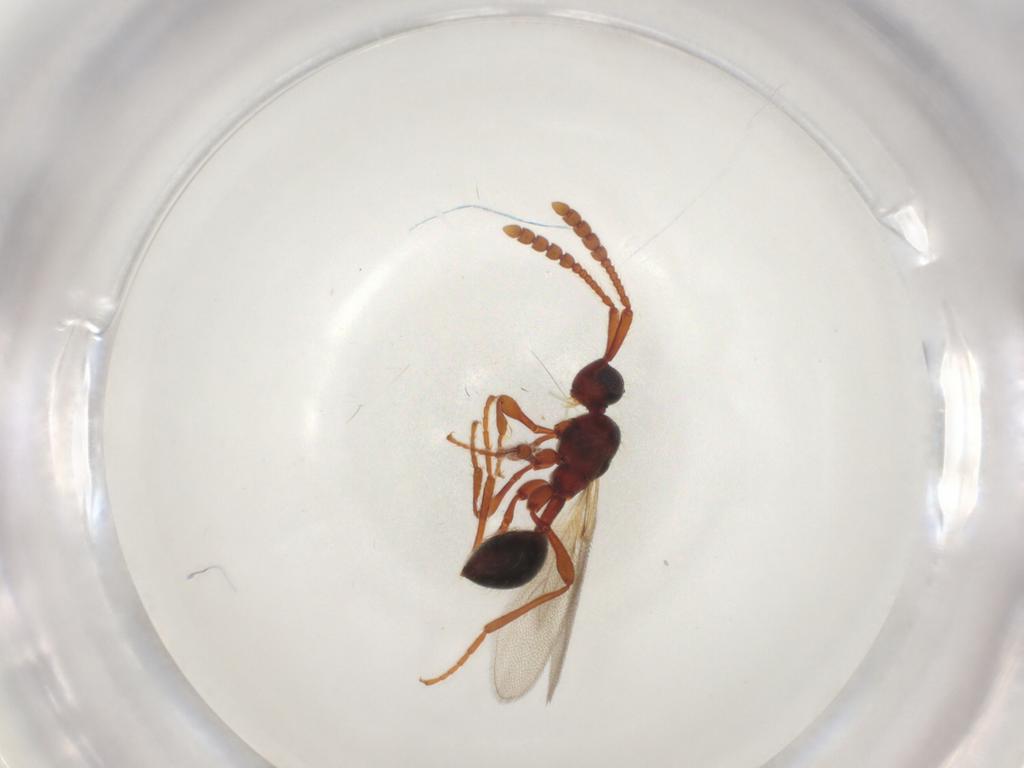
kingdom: Animalia
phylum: Arthropoda
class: Insecta
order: Hymenoptera
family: Diapriidae
